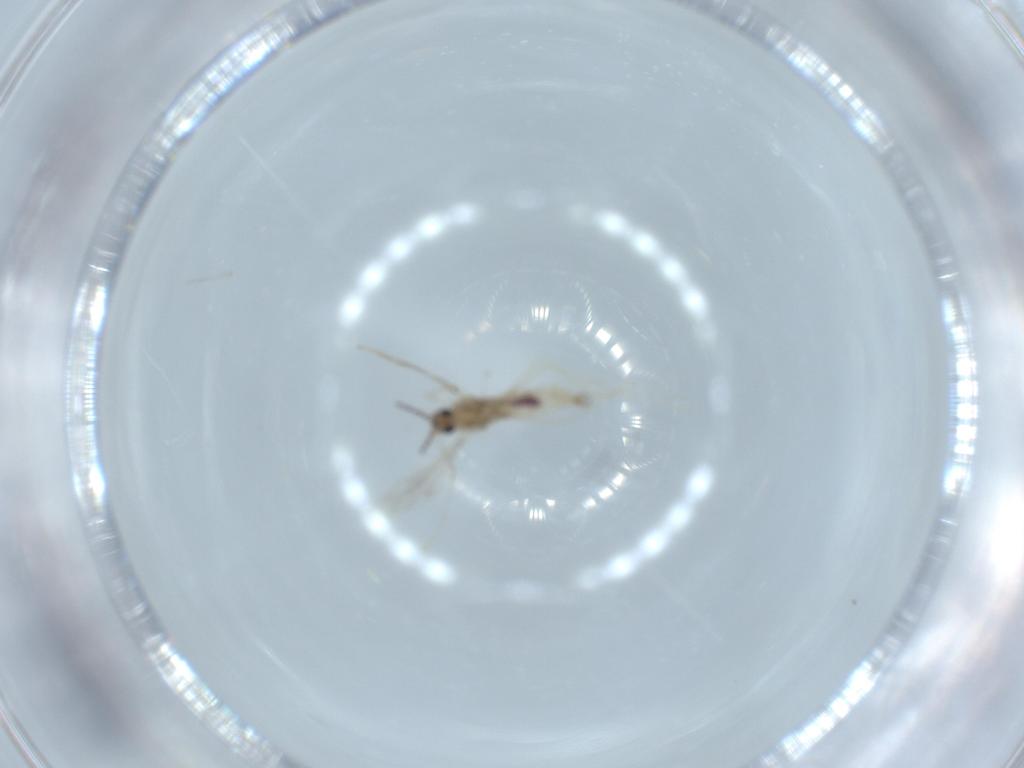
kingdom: Animalia
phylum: Arthropoda
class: Insecta
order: Diptera
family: Cecidomyiidae
